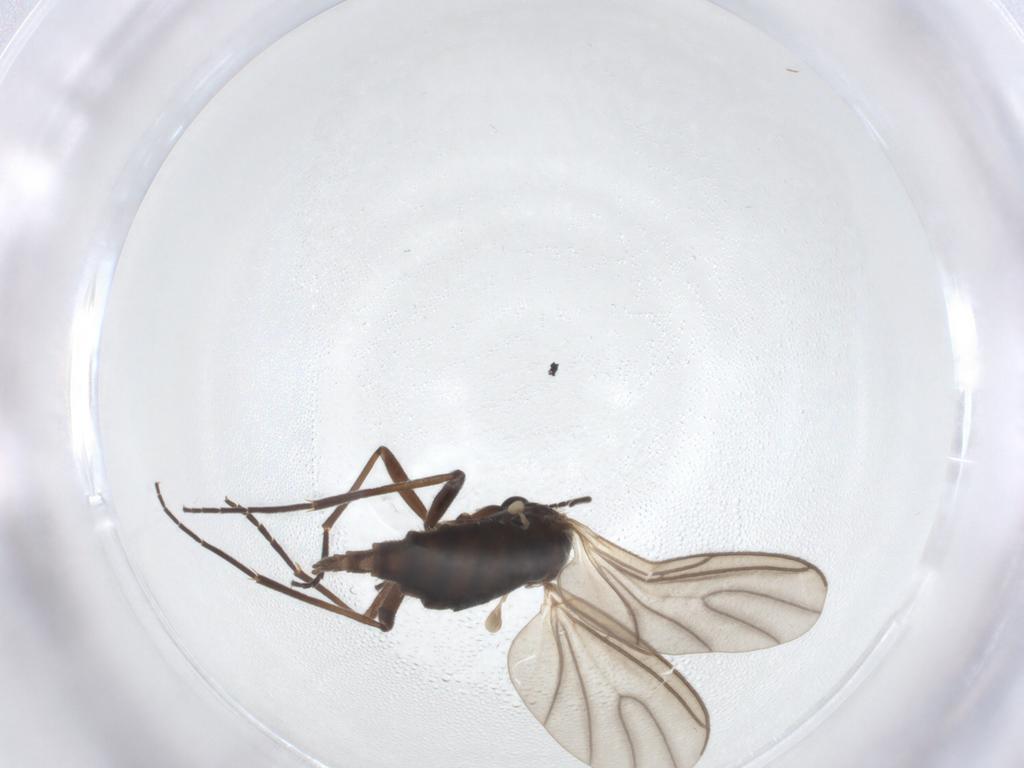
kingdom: Animalia
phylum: Arthropoda
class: Insecta
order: Diptera
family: Sciaridae
